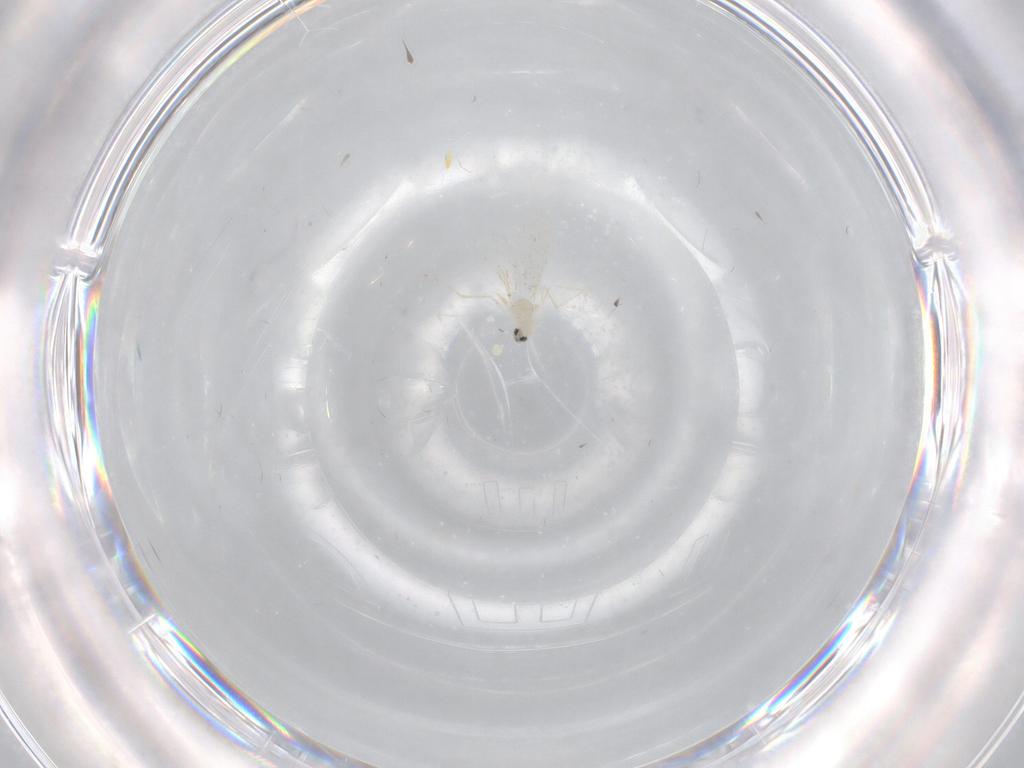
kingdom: Animalia
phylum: Arthropoda
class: Insecta
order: Diptera
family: Cecidomyiidae
